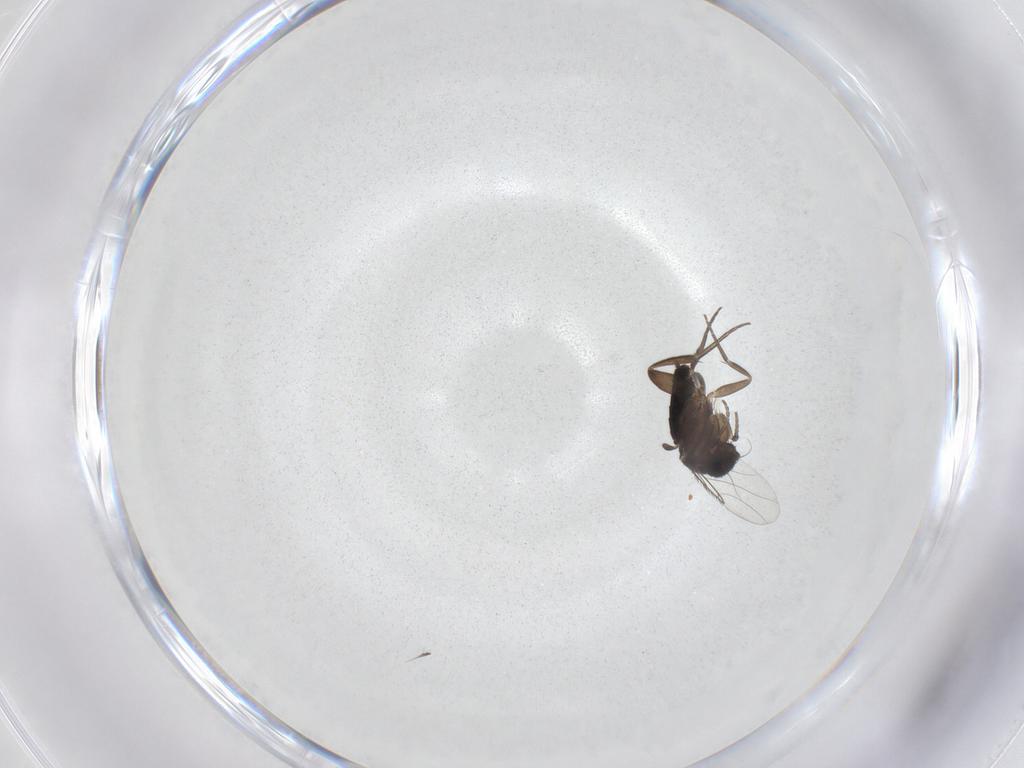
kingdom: Animalia
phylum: Arthropoda
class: Insecta
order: Diptera
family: Phoridae
